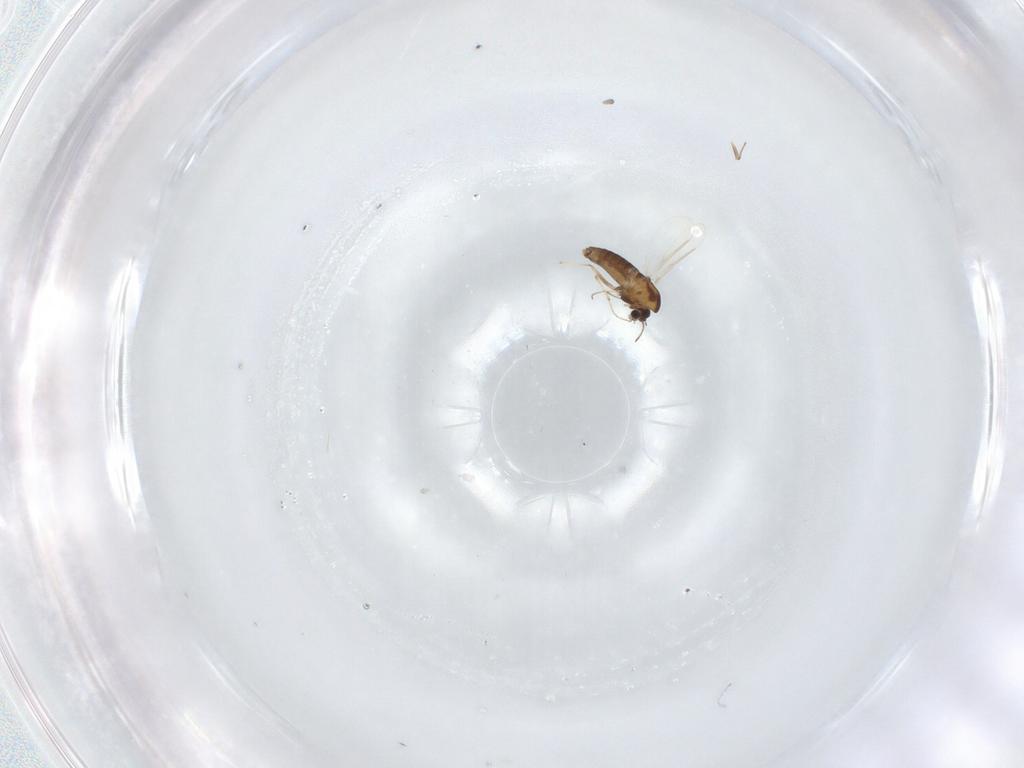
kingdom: Animalia
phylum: Arthropoda
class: Insecta
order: Diptera
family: Chironomidae
